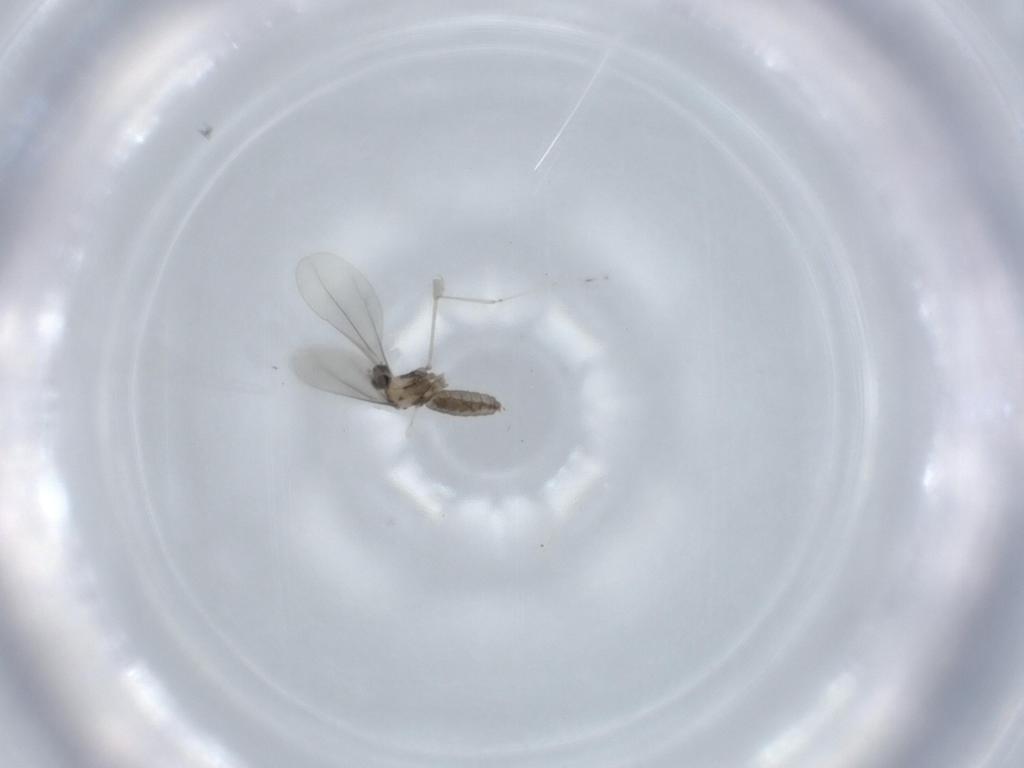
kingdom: Animalia
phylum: Arthropoda
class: Insecta
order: Diptera
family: Cecidomyiidae
